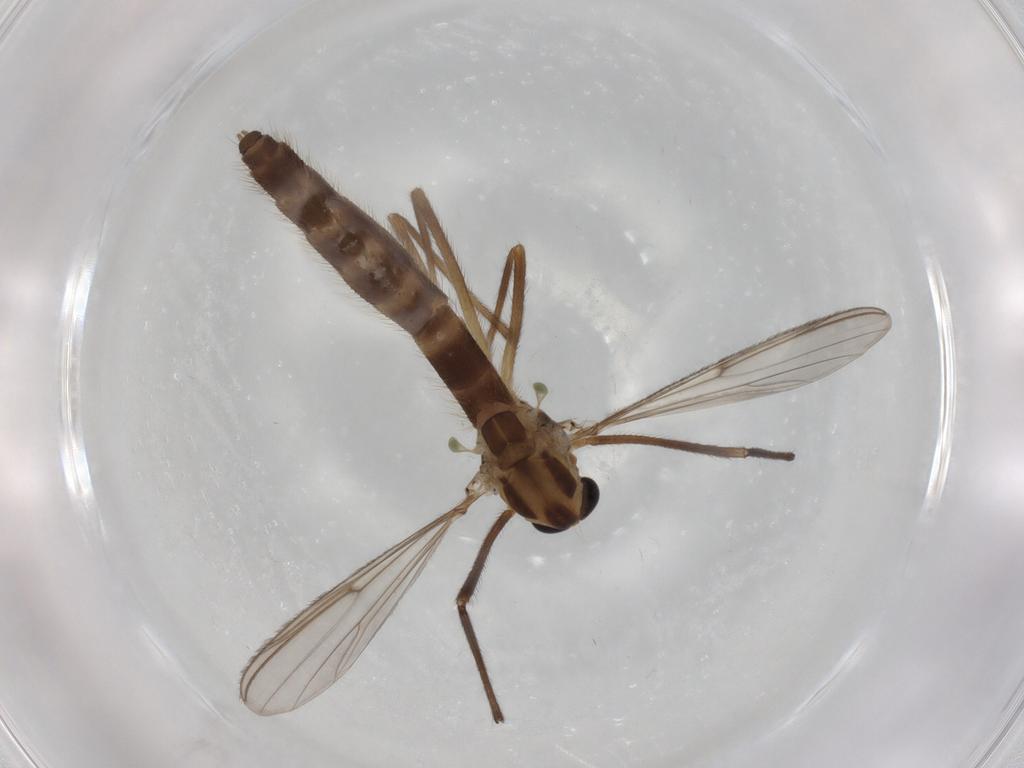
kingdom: Animalia
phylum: Arthropoda
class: Insecta
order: Diptera
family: Chironomidae
